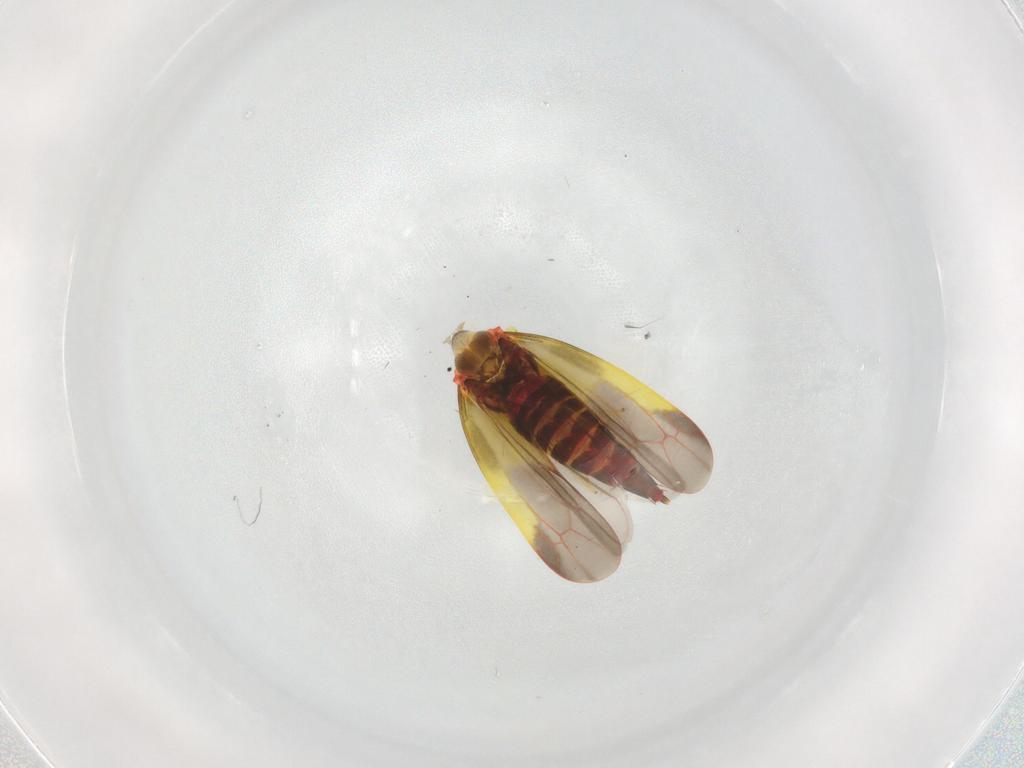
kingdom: Animalia
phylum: Arthropoda
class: Insecta
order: Hemiptera
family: Cicadellidae
